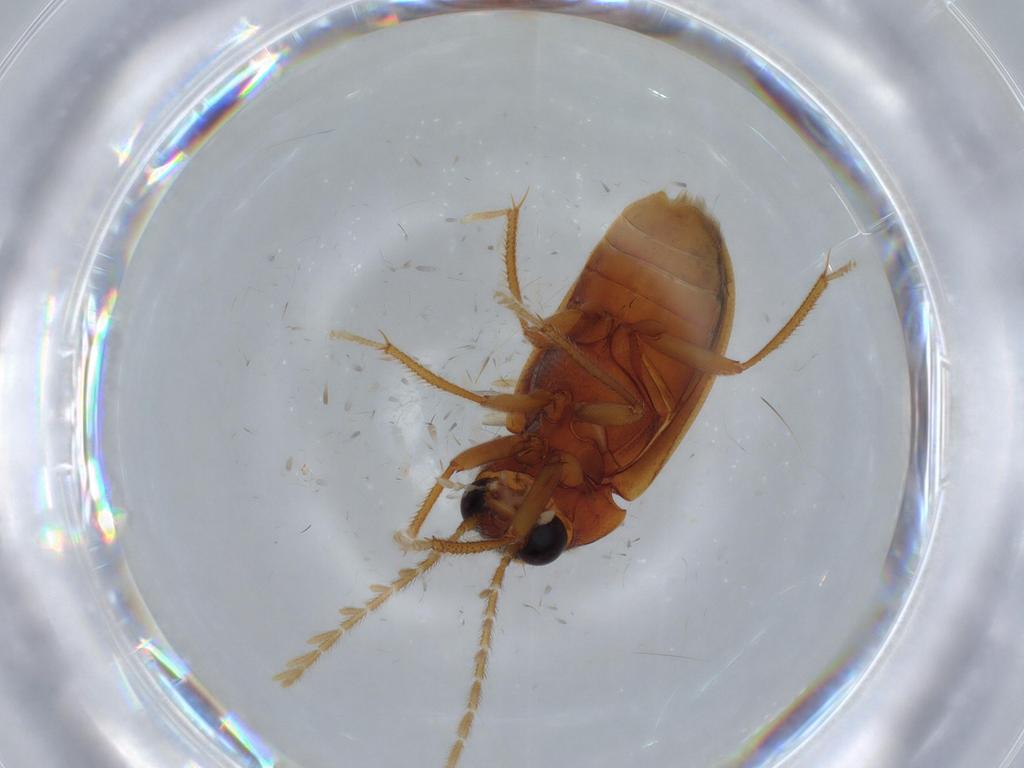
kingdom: Animalia
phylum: Arthropoda
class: Insecta
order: Coleoptera
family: Ptilodactylidae
